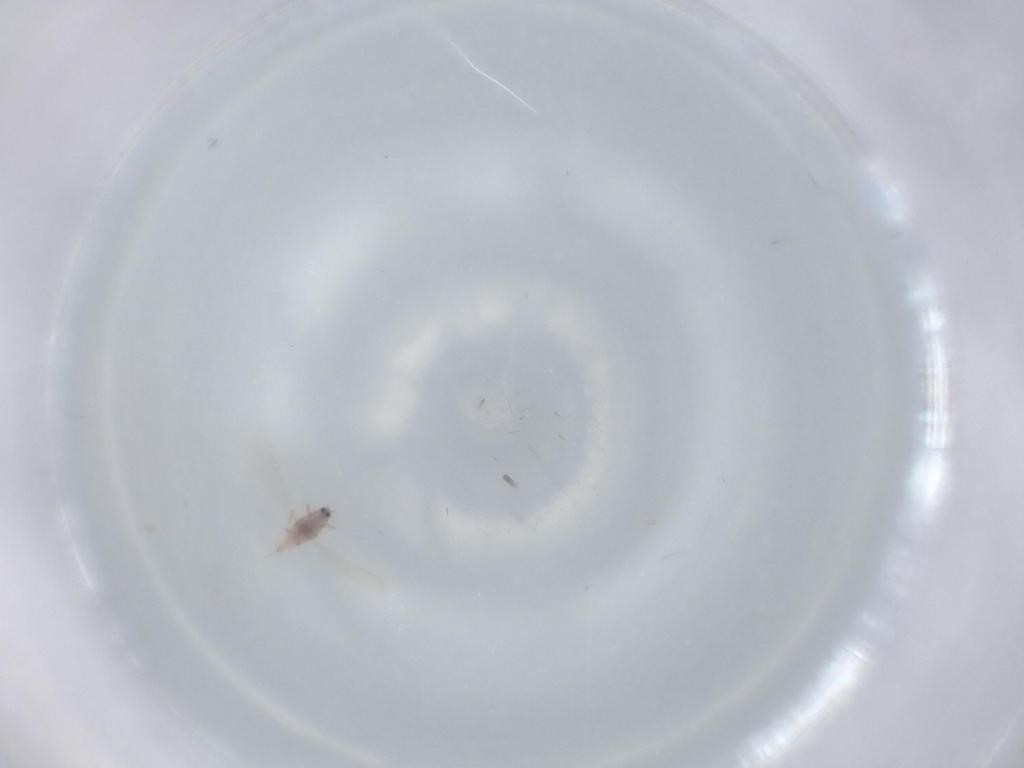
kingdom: Animalia
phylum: Arthropoda
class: Insecta
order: Hemiptera
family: Diaspididae
